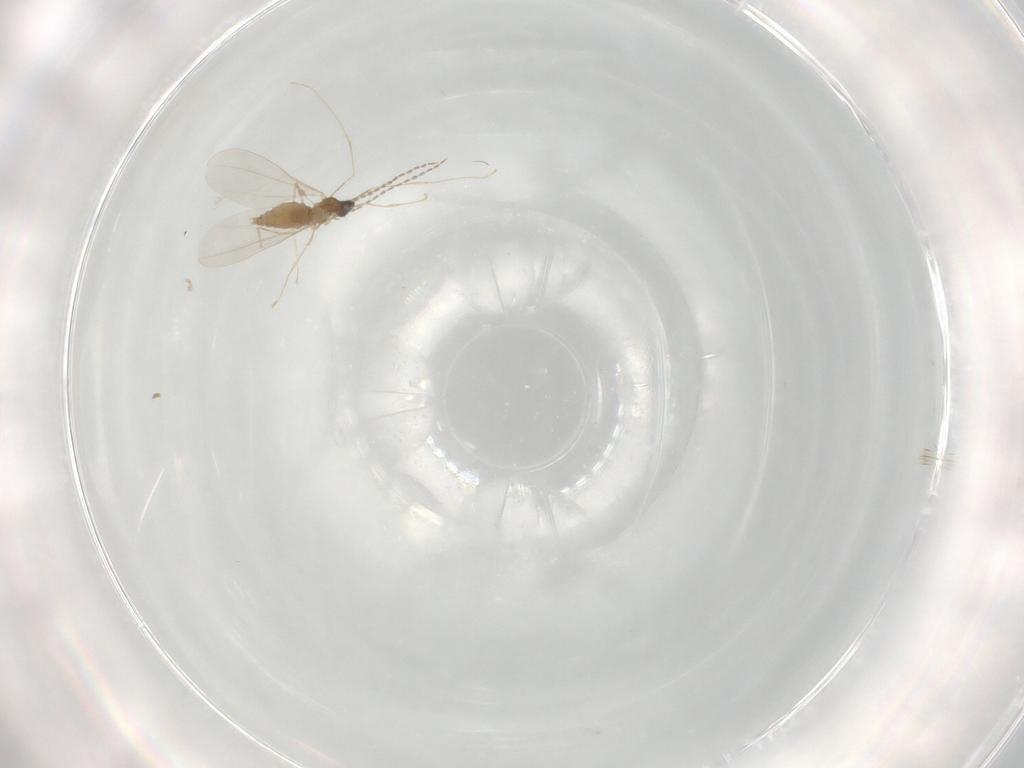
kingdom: Animalia
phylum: Arthropoda
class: Insecta
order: Diptera
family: Cecidomyiidae
